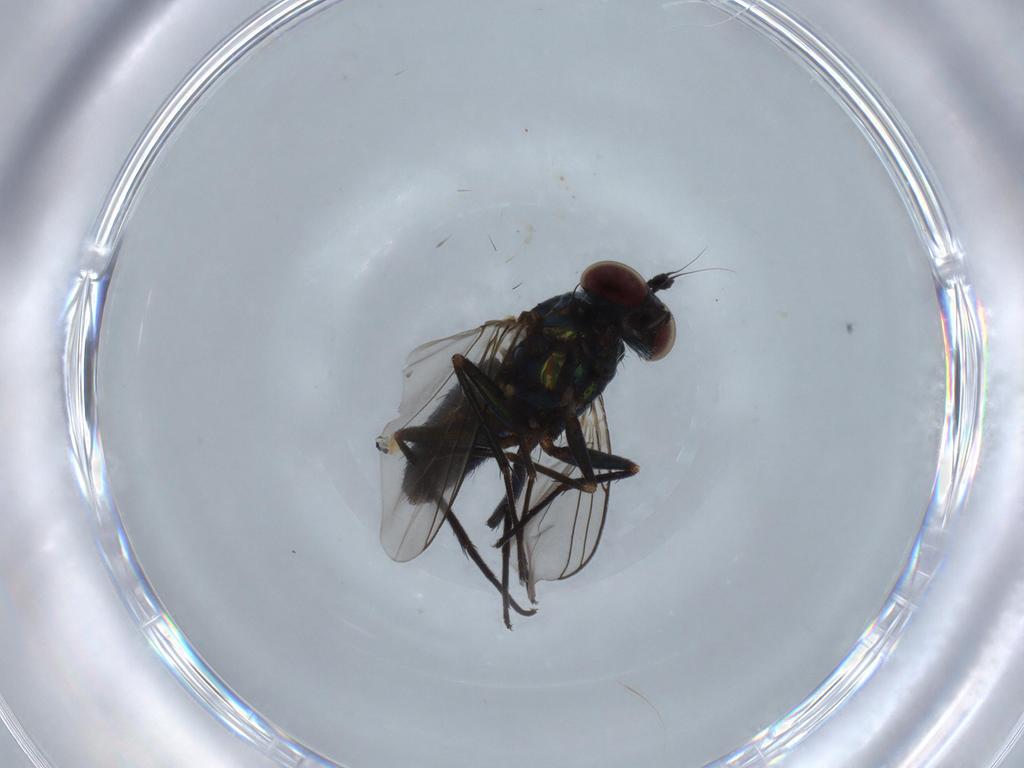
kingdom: Animalia
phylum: Arthropoda
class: Insecta
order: Diptera
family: Dolichopodidae
